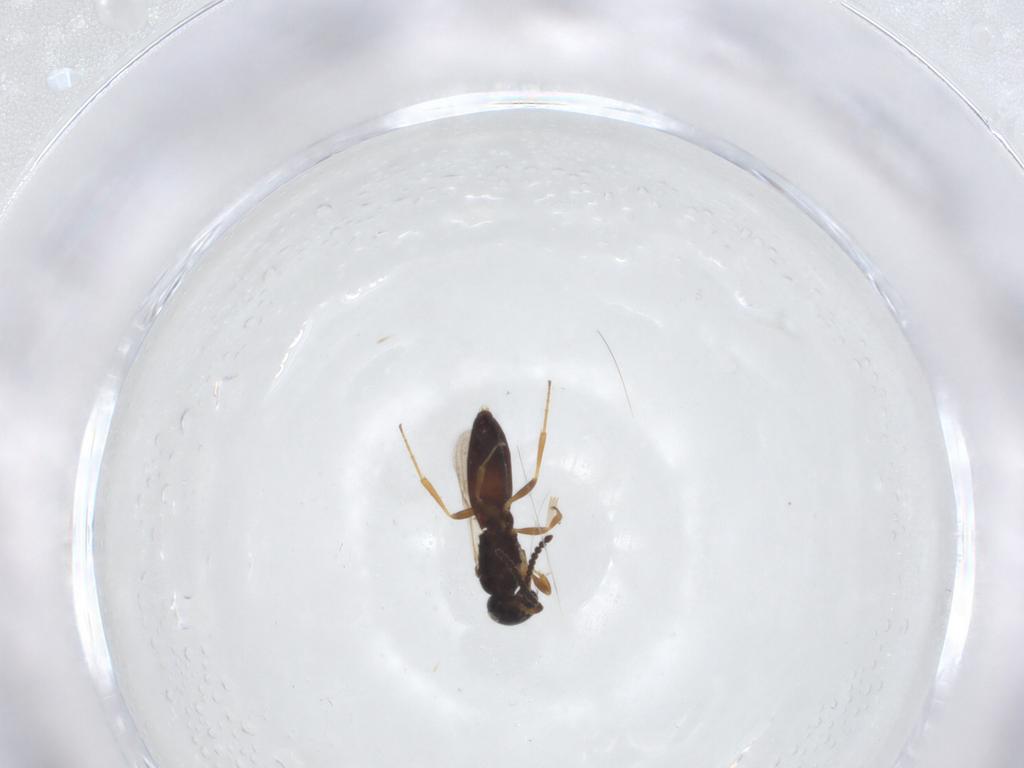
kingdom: Animalia
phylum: Arthropoda
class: Insecta
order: Hymenoptera
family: Scelionidae
